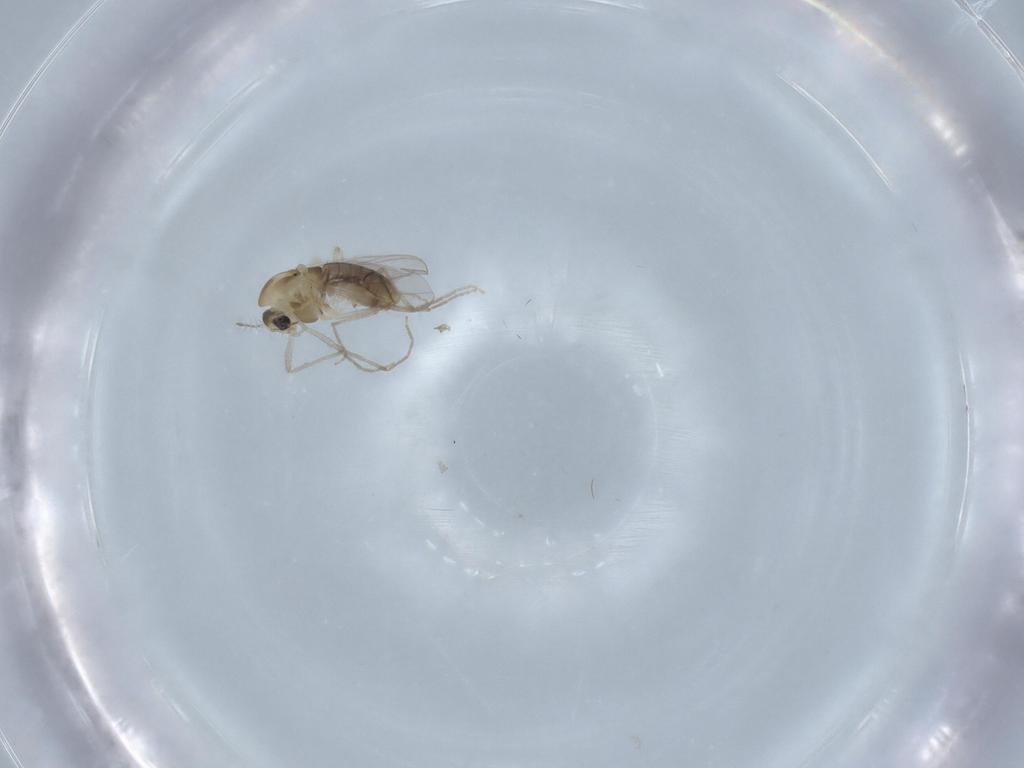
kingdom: Animalia
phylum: Arthropoda
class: Insecta
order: Diptera
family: Chironomidae
